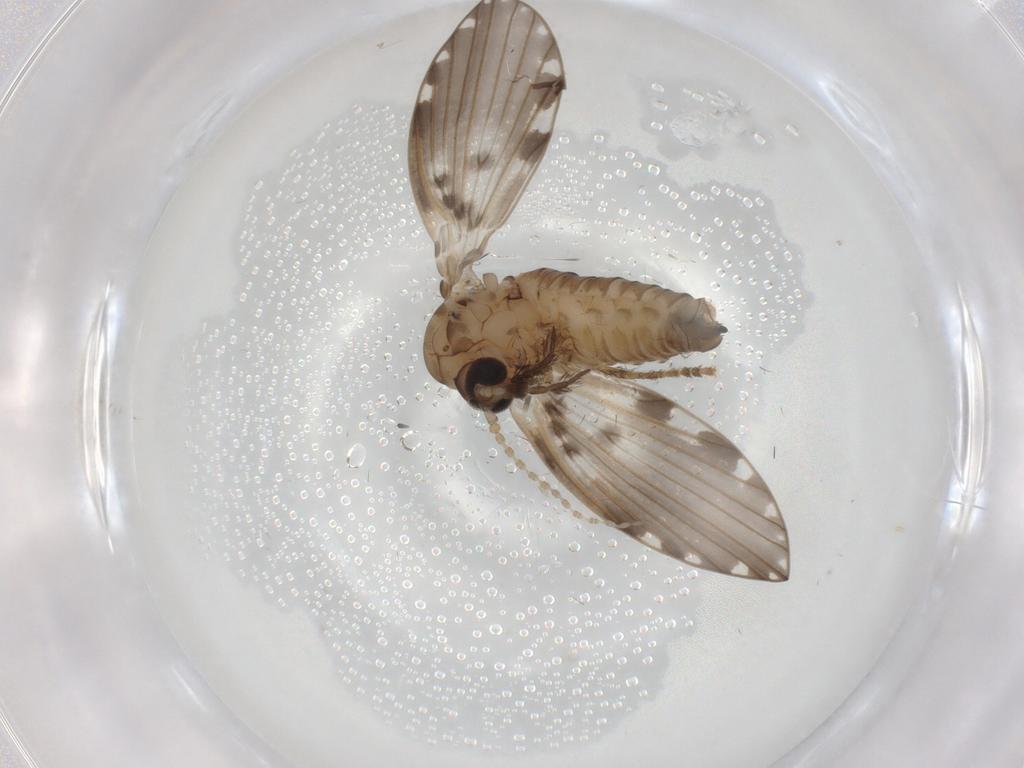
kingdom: Animalia
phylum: Arthropoda
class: Insecta
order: Diptera
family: Psychodidae
